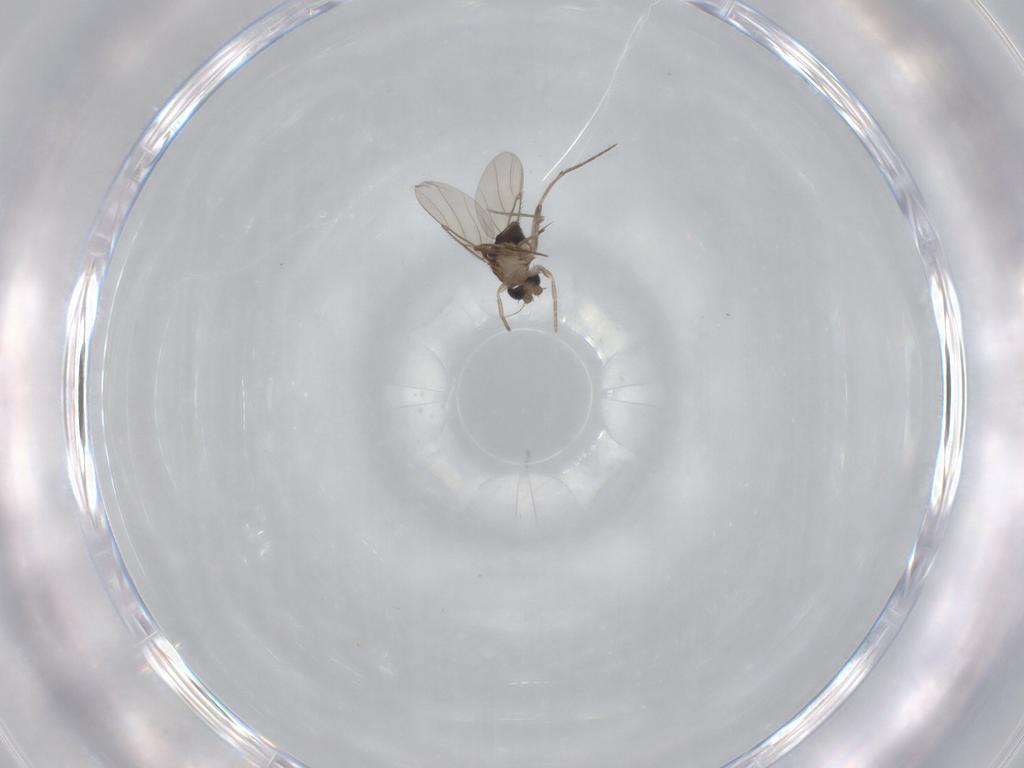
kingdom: Animalia
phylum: Arthropoda
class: Insecta
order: Diptera
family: Phoridae
